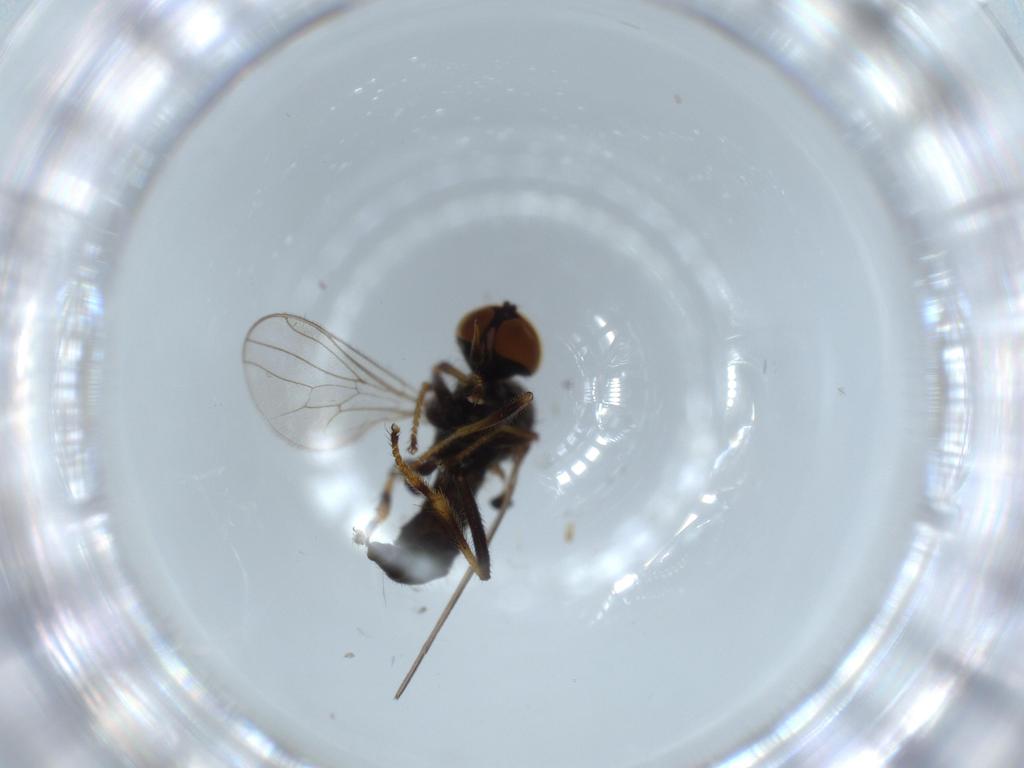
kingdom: Animalia
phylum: Arthropoda
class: Insecta
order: Diptera
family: Hybotidae
